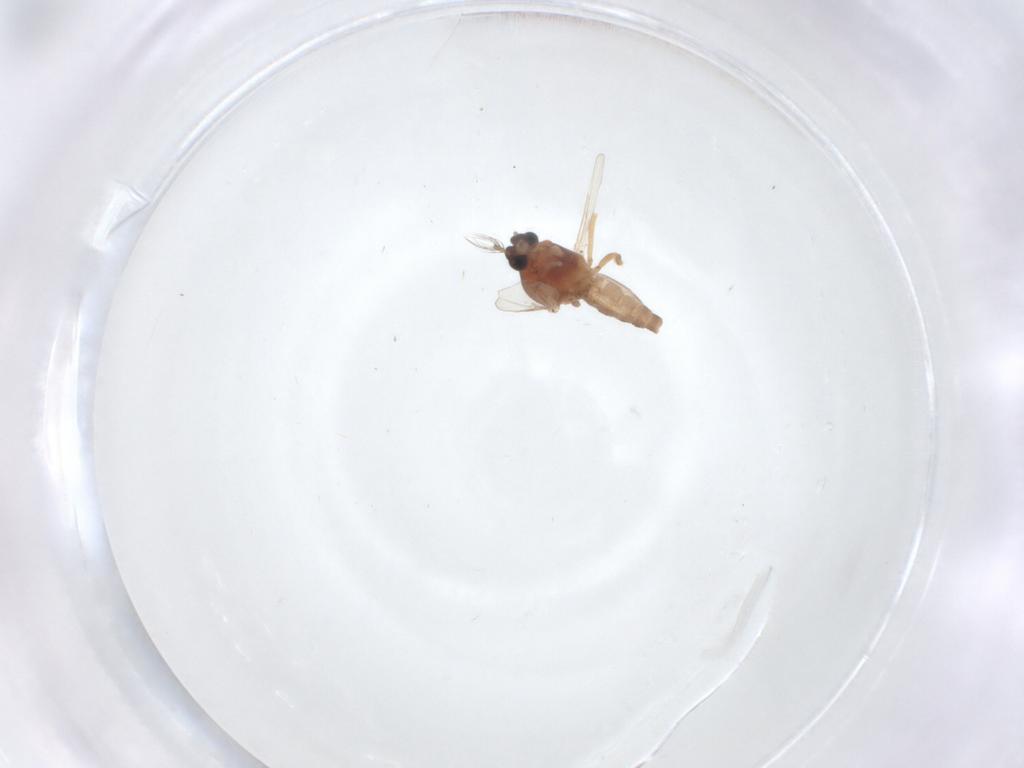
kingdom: Animalia
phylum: Arthropoda
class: Insecta
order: Diptera
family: Ceratopogonidae
